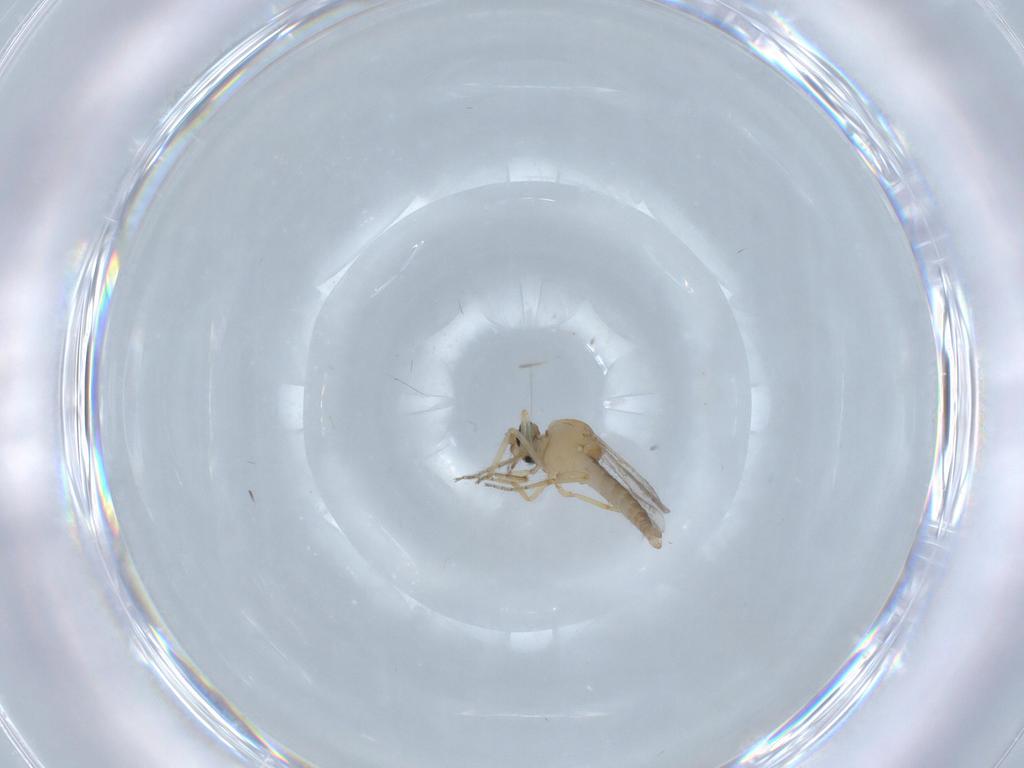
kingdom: Animalia
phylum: Arthropoda
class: Insecta
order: Diptera
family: Ceratopogonidae
